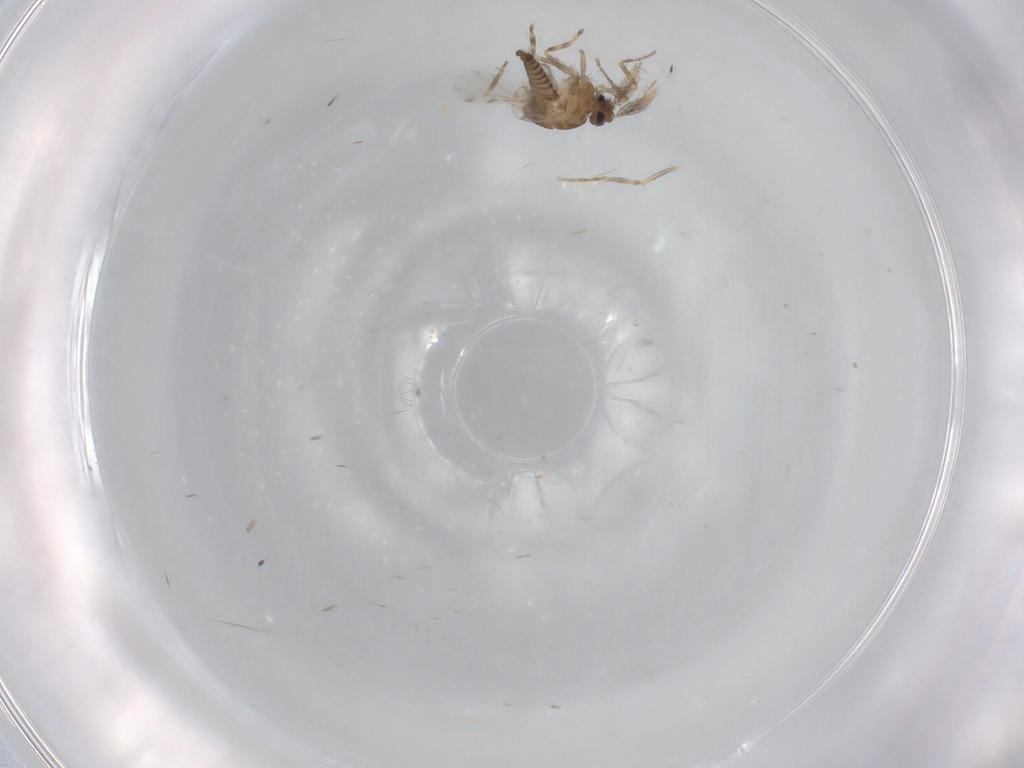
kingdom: Animalia
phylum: Arthropoda
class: Insecta
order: Diptera
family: Ceratopogonidae
